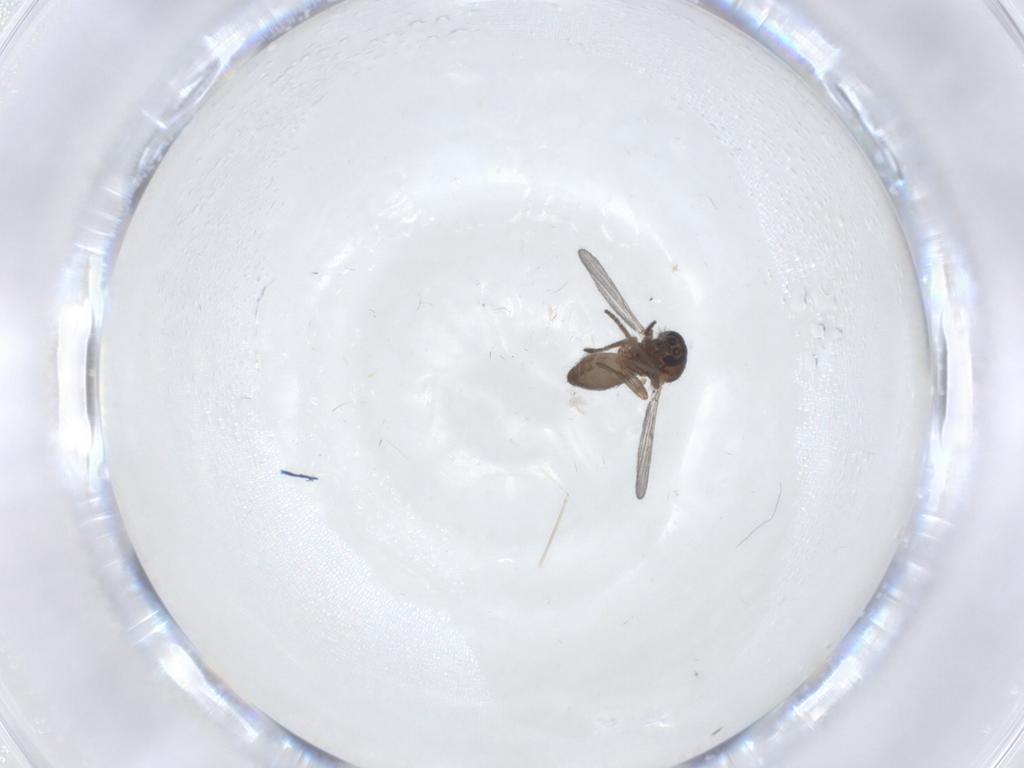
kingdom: Animalia
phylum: Arthropoda
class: Insecta
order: Diptera
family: Cecidomyiidae
